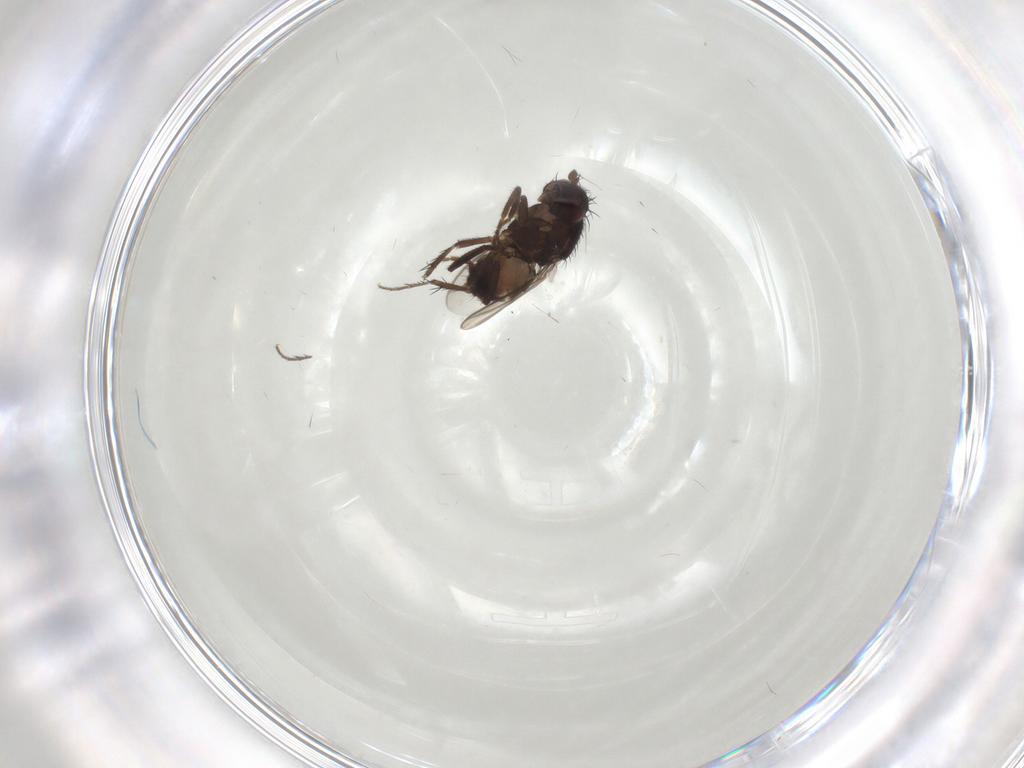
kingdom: Animalia
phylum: Arthropoda
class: Insecta
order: Diptera
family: Sphaeroceridae
